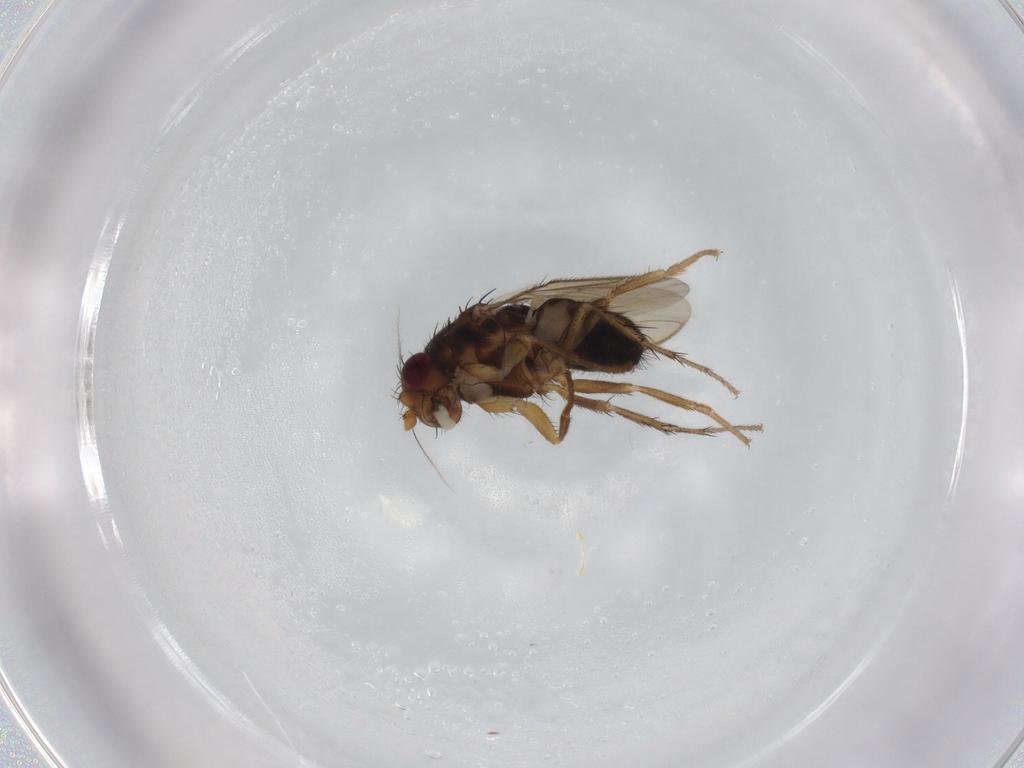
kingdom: Animalia
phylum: Arthropoda
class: Insecta
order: Diptera
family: Sphaeroceridae
